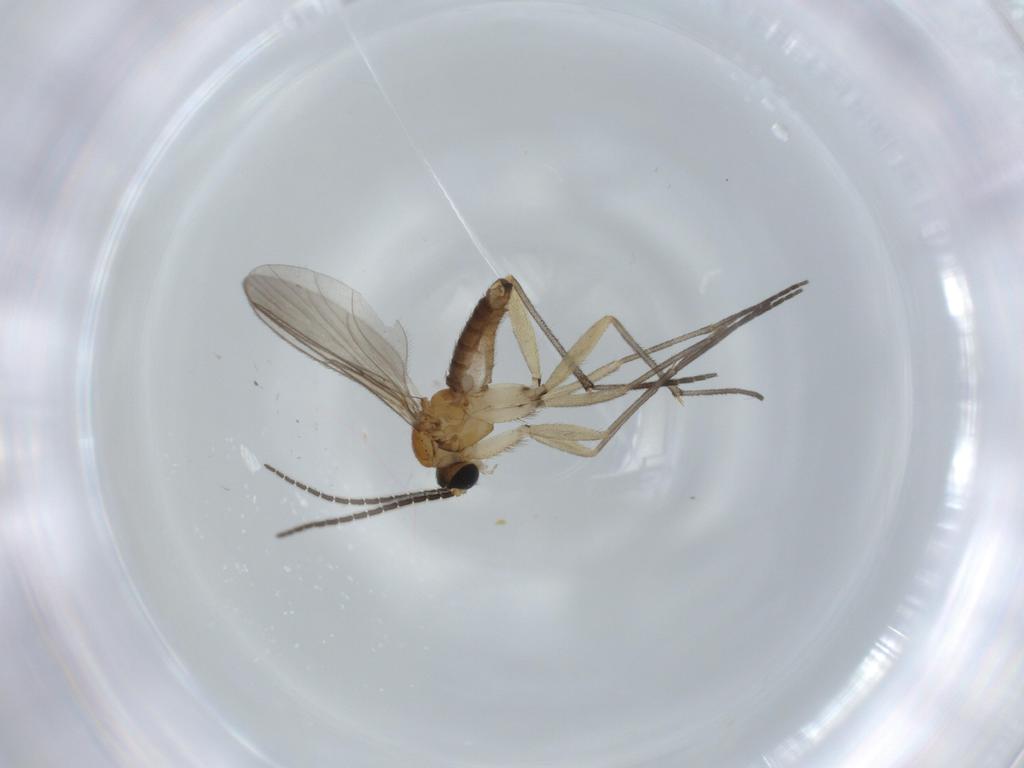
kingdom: Animalia
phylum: Arthropoda
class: Insecta
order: Diptera
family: Sciaridae
